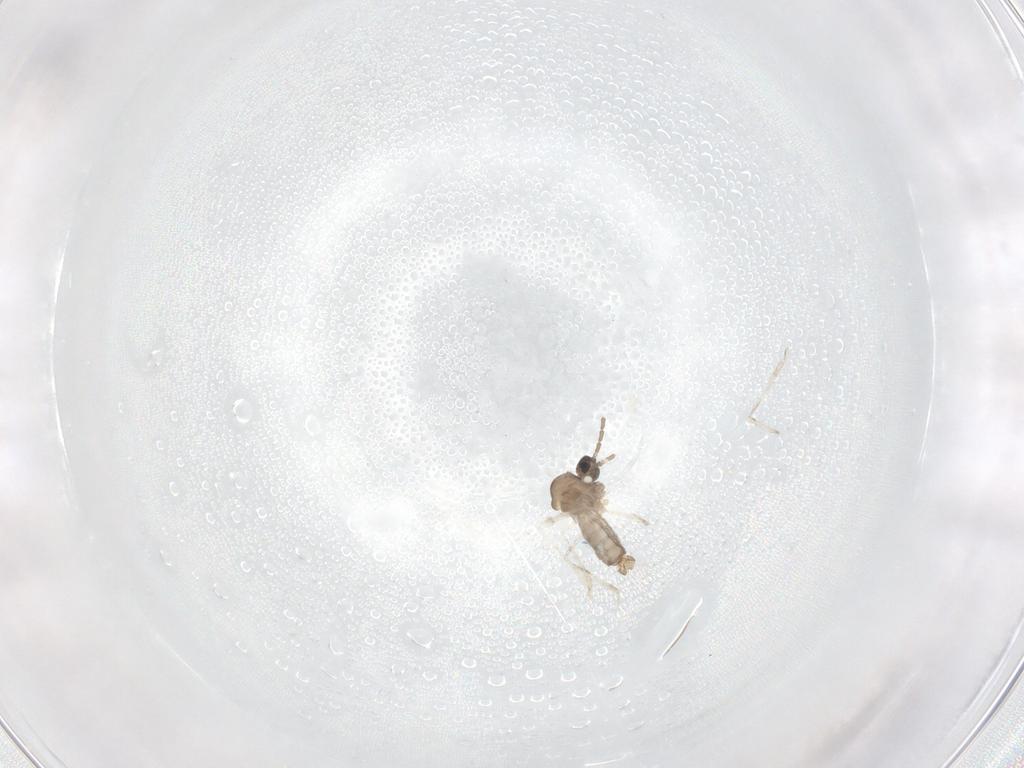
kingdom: Animalia
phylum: Arthropoda
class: Insecta
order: Diptera
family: Cecidomyiidae
